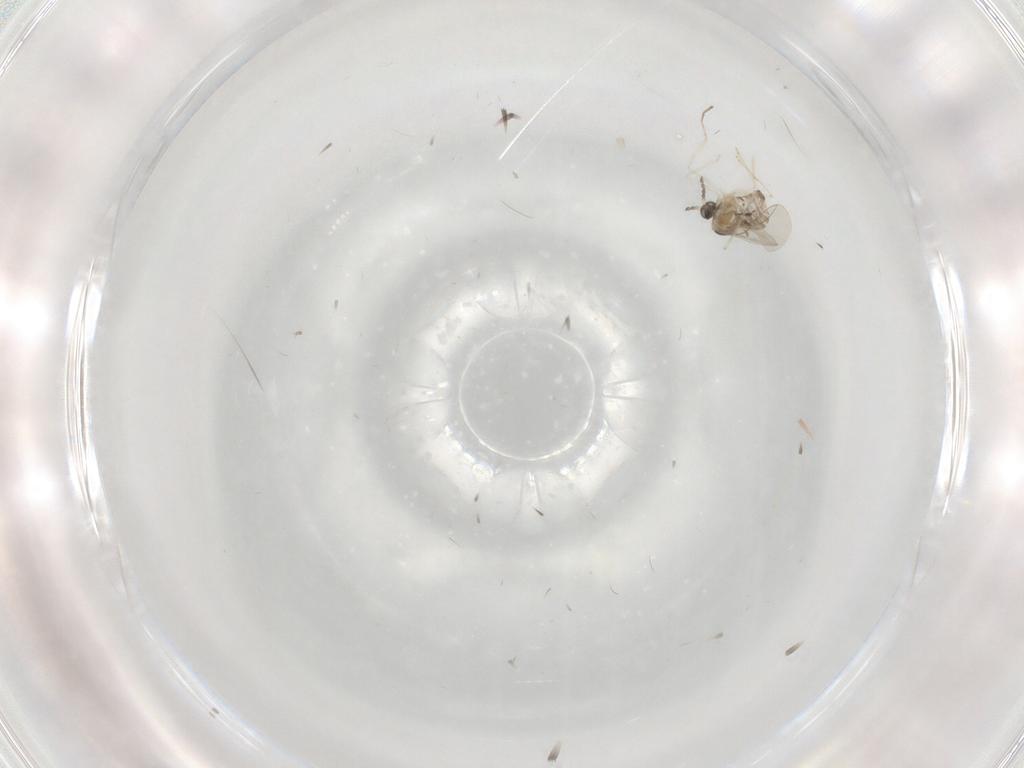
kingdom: Animalia
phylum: Arthropoda
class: Insecta
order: Diptera
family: Cecidomyiidae
